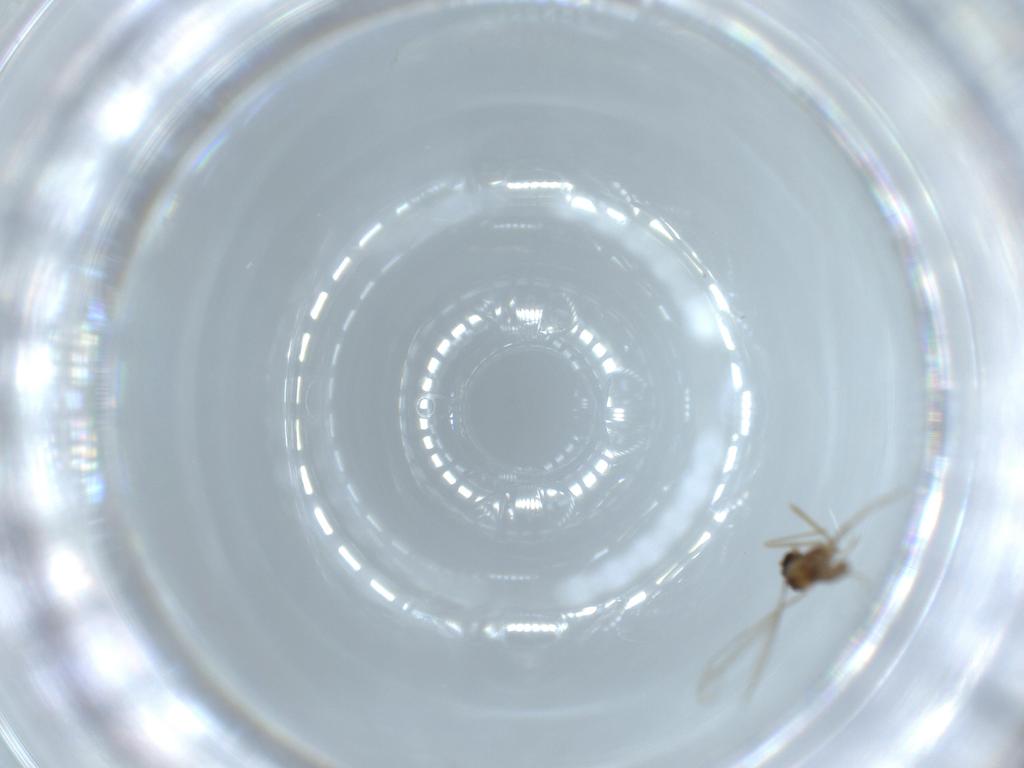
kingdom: Animalia
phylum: Arthropoda
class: Insecta
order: Diptera
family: Cecidomyiidae
